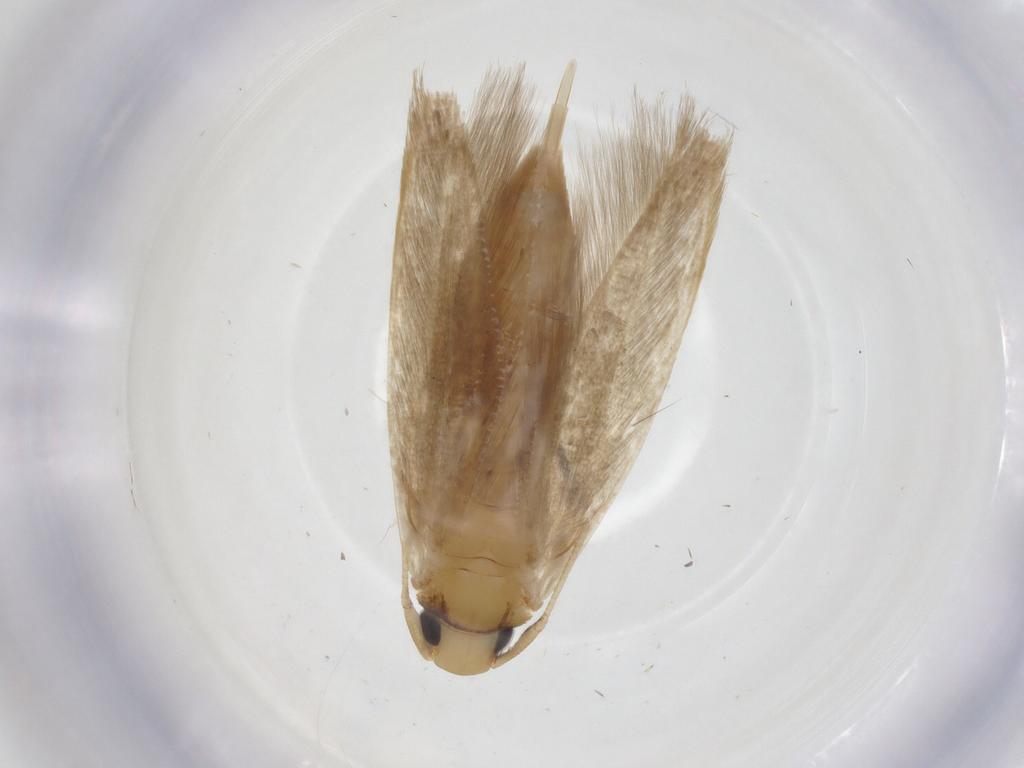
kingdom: Animalia
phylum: Arthropoda
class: Insecta
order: Lepidoptera
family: Tineidae
